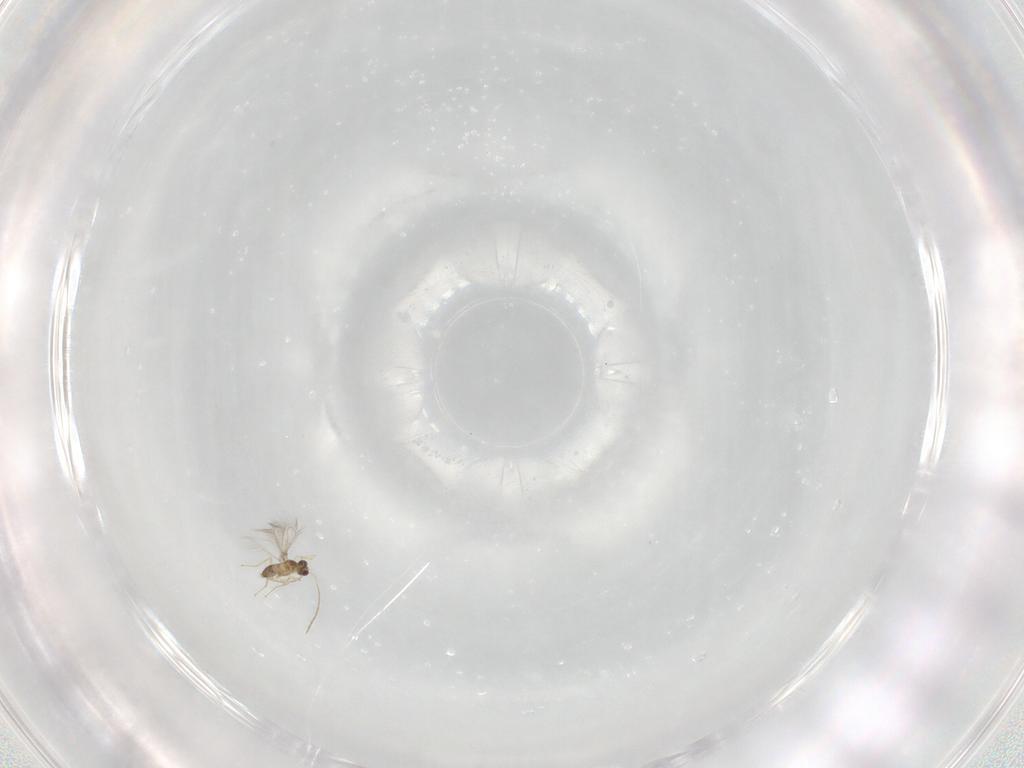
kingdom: Animalia
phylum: Arthropoda
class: Insecta
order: Hymenoptera
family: Mymaridae
